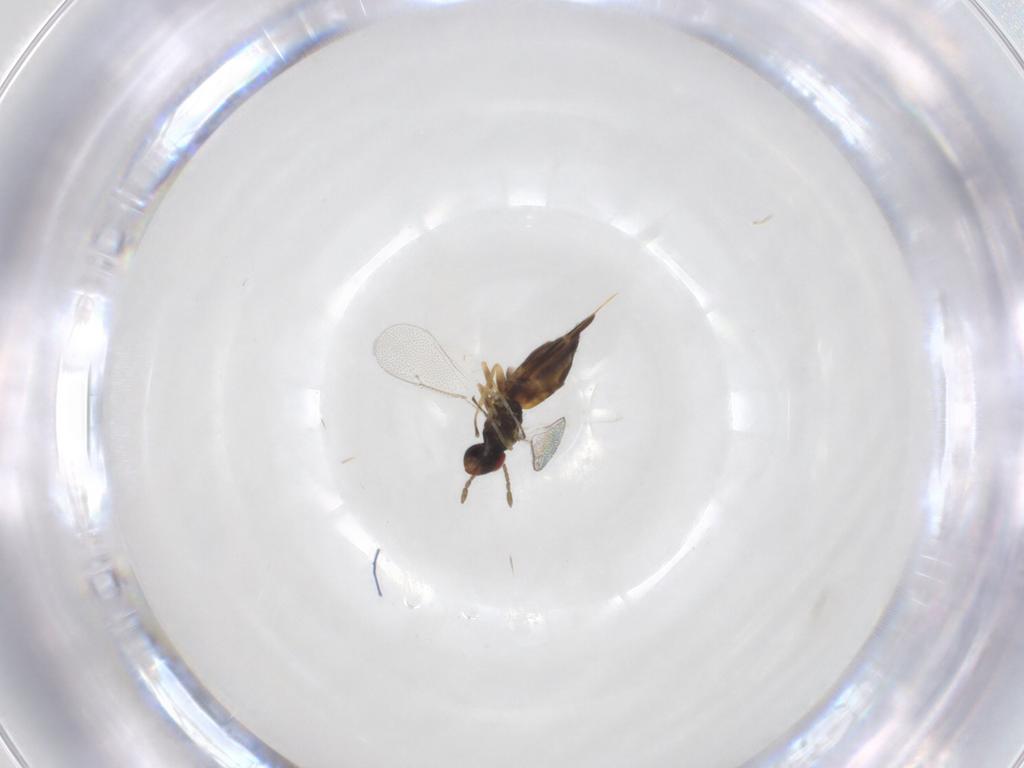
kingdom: Animalia
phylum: Arthropoda
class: Insecta
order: Hymenoptera
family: Eulophidae
